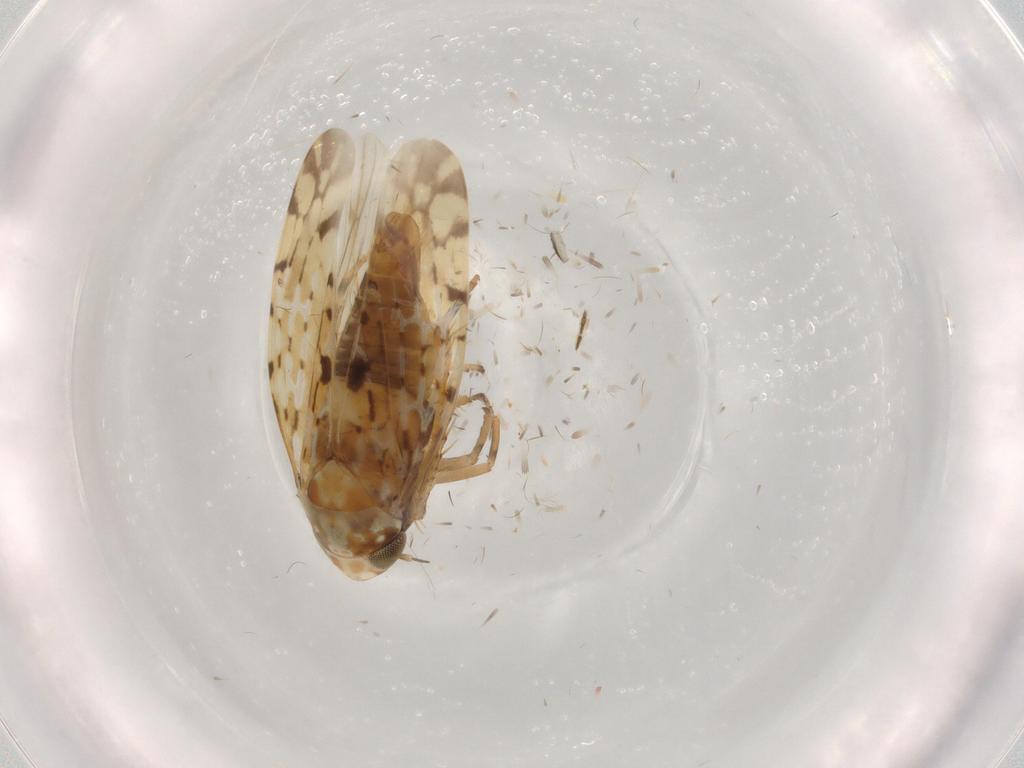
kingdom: Animalia
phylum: Arthropoda
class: Insecta
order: Hemiptera
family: Cicadellidae
